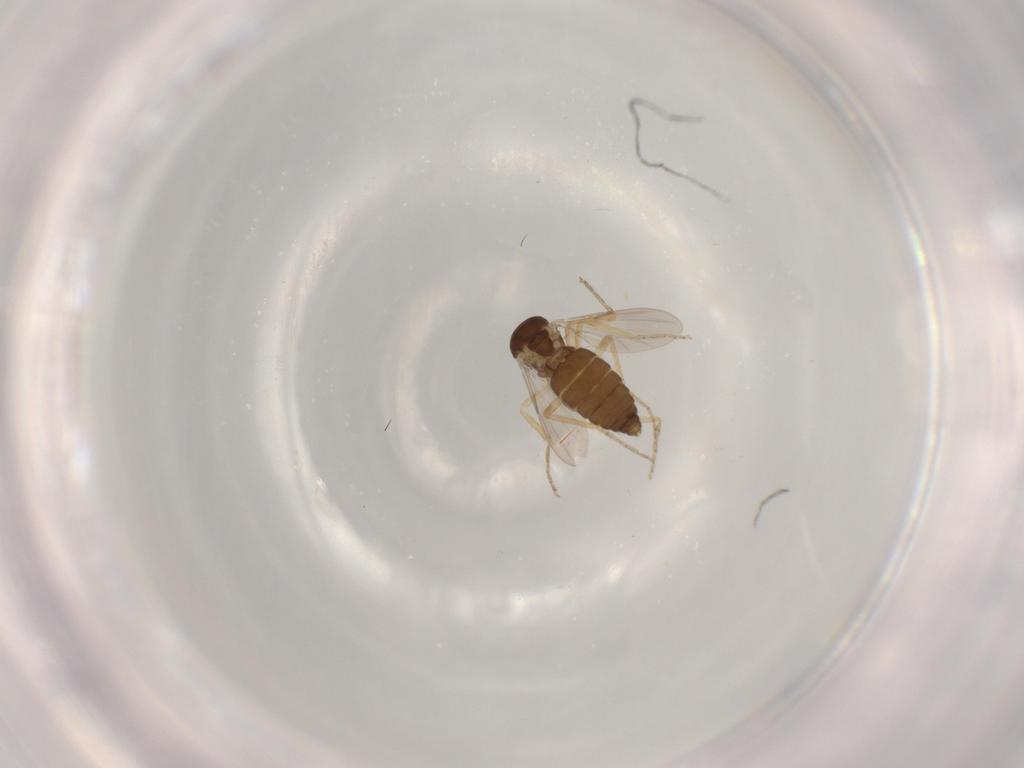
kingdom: Animalia
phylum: Arthropoda
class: Insecta
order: Diptera
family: Ceratopogonidae
